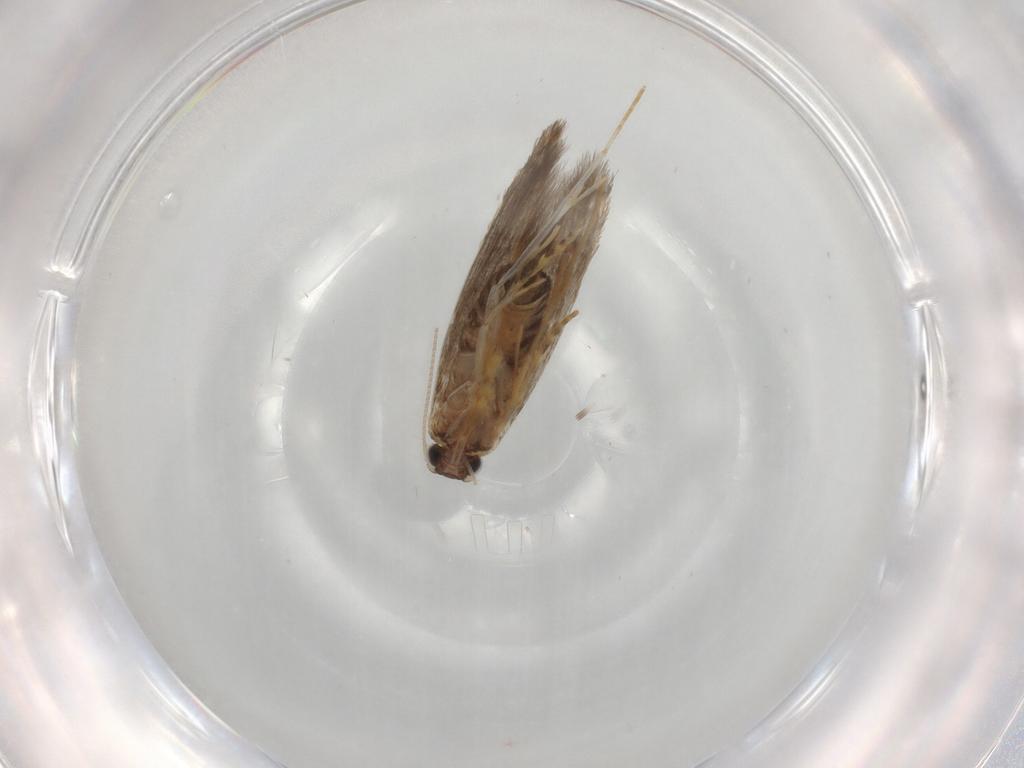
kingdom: Animalia
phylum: Arthropoda
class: Insecta
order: Lepidoptera
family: Tineidae
